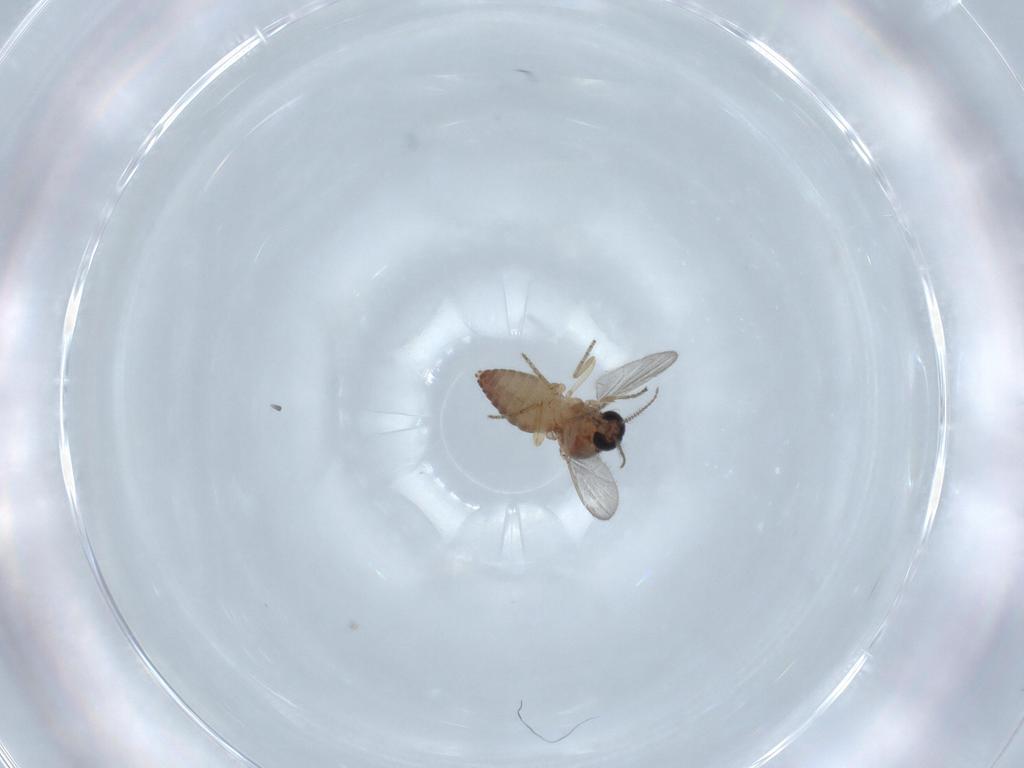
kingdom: Animalia
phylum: Arthropoda
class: Insecta
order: Diptera
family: Ceratopogonidae
